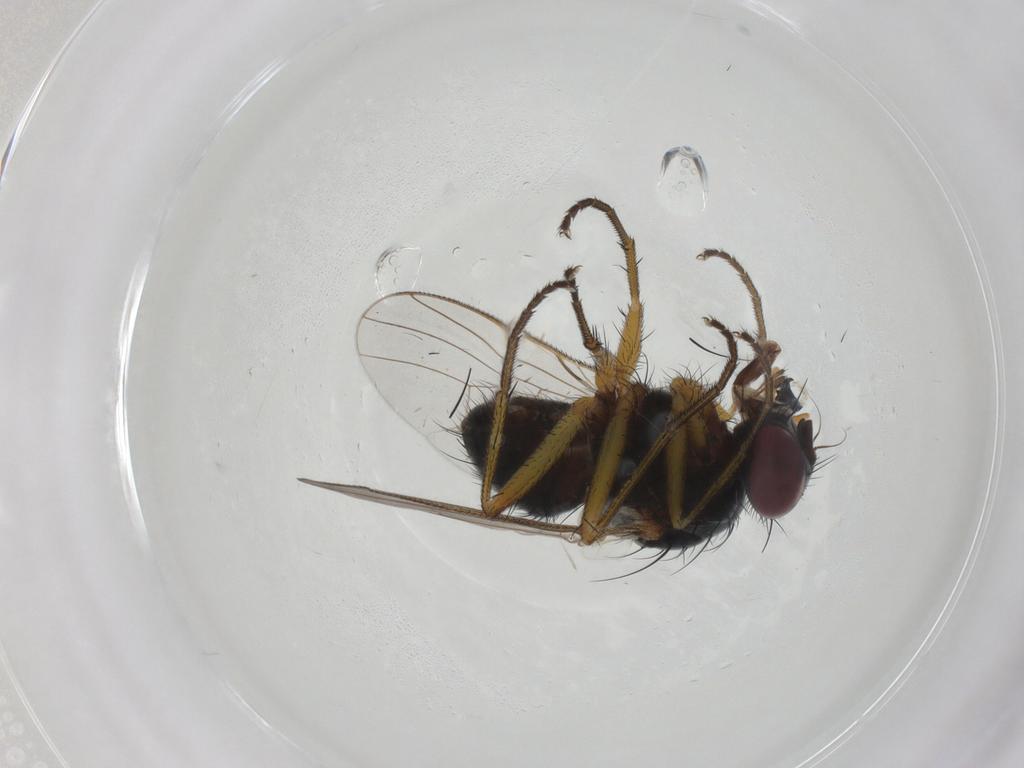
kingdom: Animalia
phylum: Arthropoda
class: Insecta
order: Diptera
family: Muscidae
